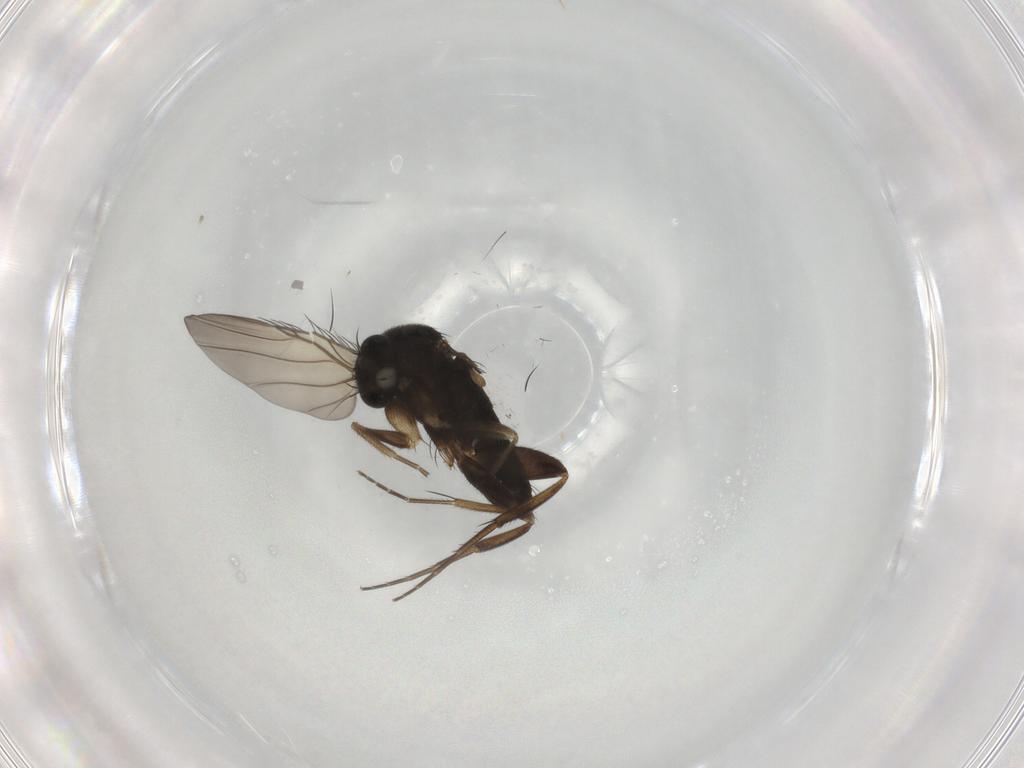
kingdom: Animalia
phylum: Arthropoda
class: Insecta
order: Diptera
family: Phoridae
